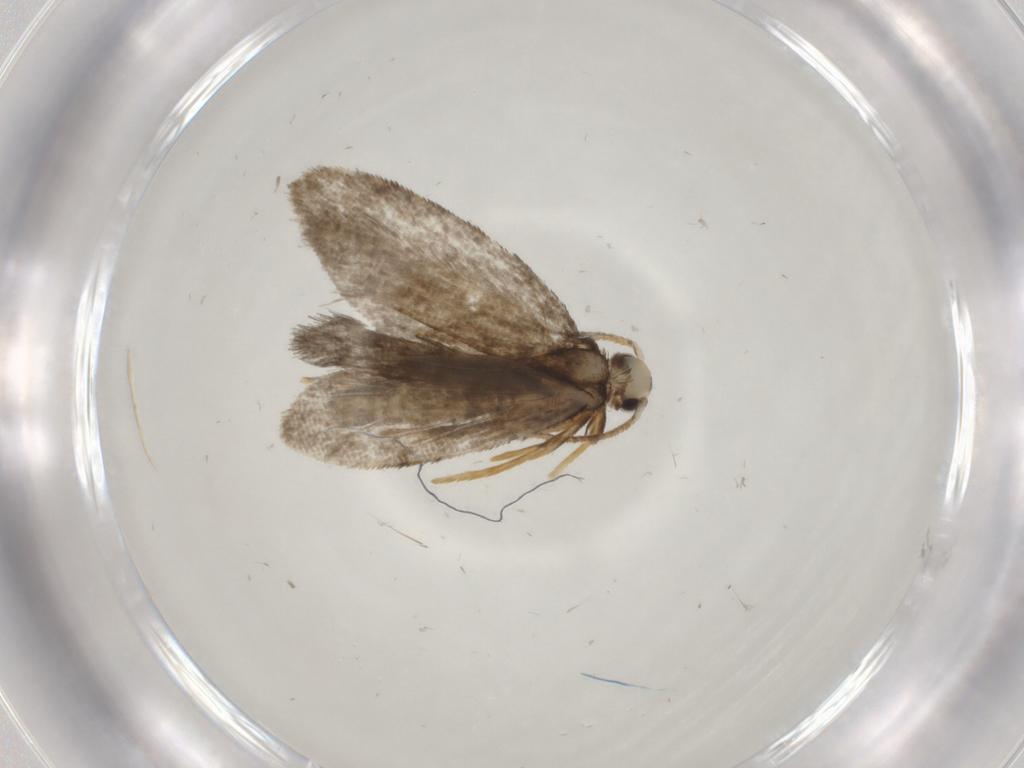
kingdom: Animalia
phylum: Arthropoda
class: Insecta
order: Lepidoptera
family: Psychidae
